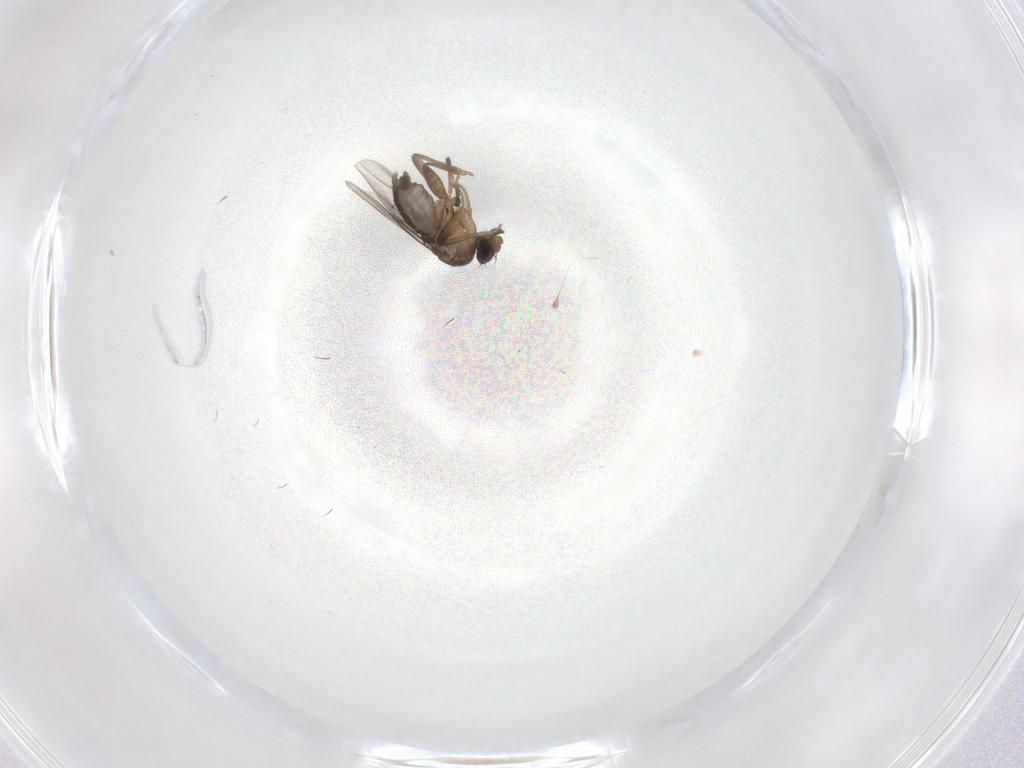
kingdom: Animalia
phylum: Arthropoda
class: Insecta
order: Diptera
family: Phoridae
